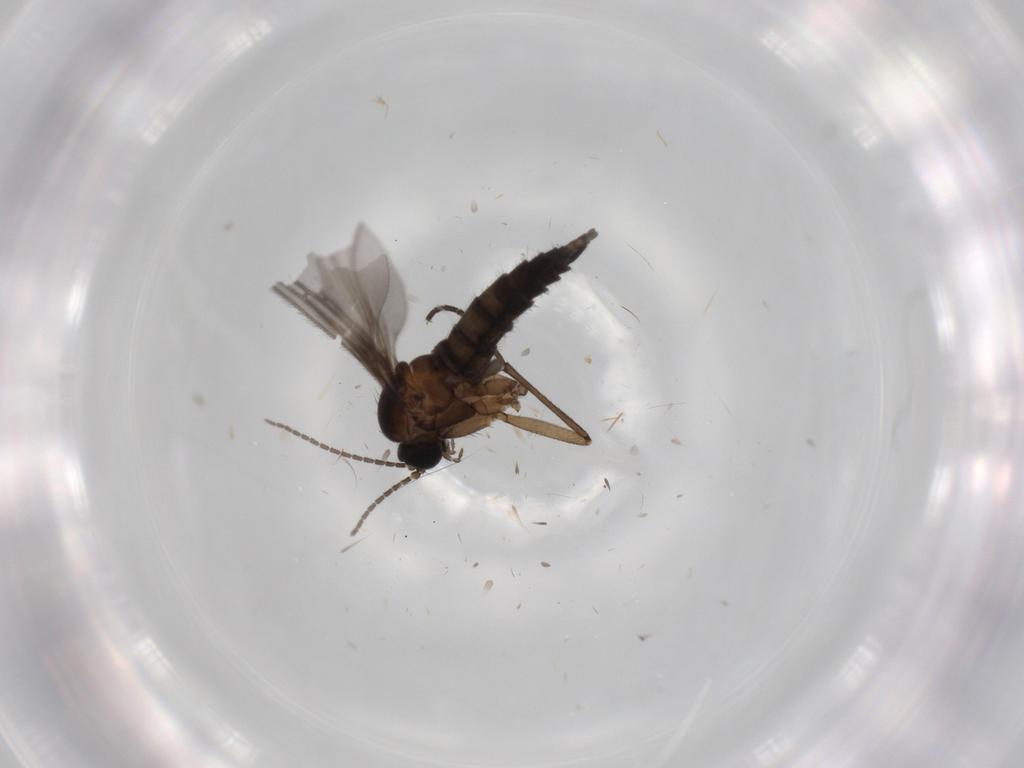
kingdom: Animalia
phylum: Arthropoda
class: Insecta
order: Diptera
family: Sciaridae
